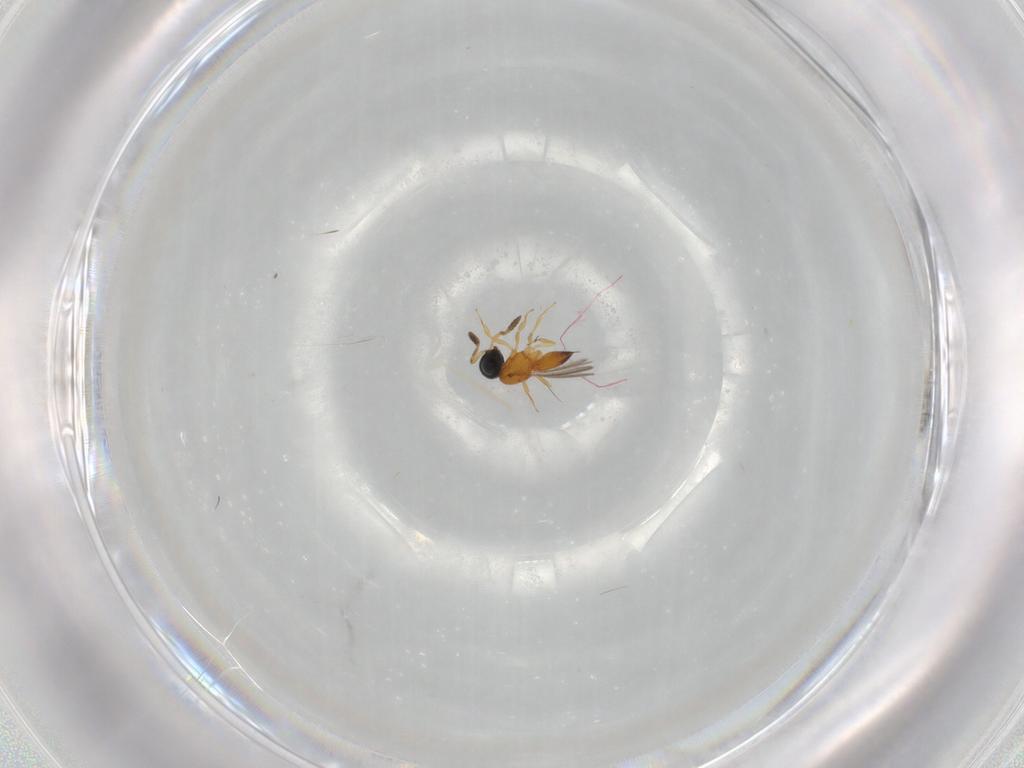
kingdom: Animalia
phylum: Arthropoda
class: Insecta
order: Hymenoptera
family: Scelionidae
